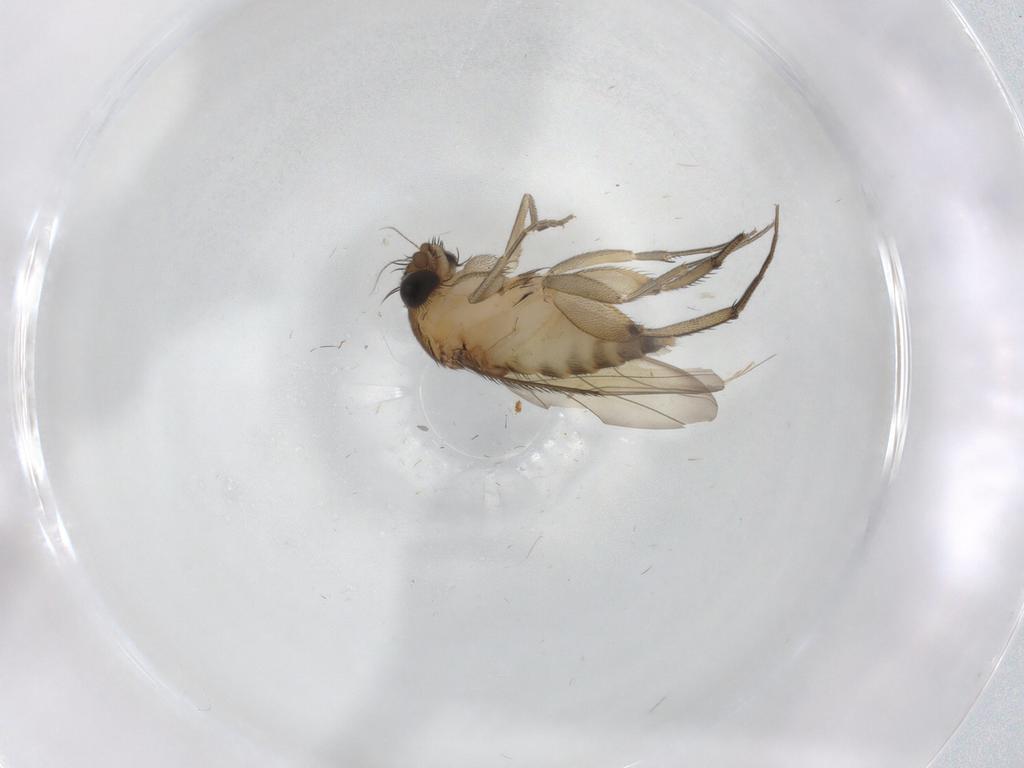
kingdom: Animalia
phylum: Arthropoda
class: Insecta
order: Diptera
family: Phoridae
